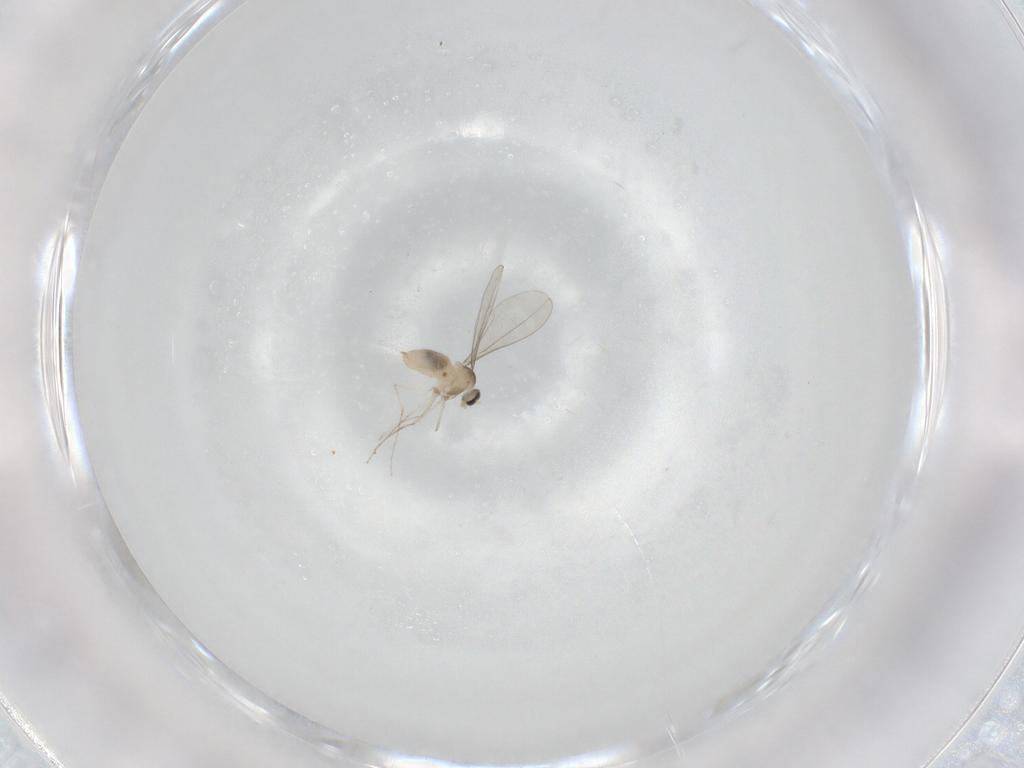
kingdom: Animalia
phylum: Arthropoda
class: Insecta
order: Diptera
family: Cecidomyiidae
